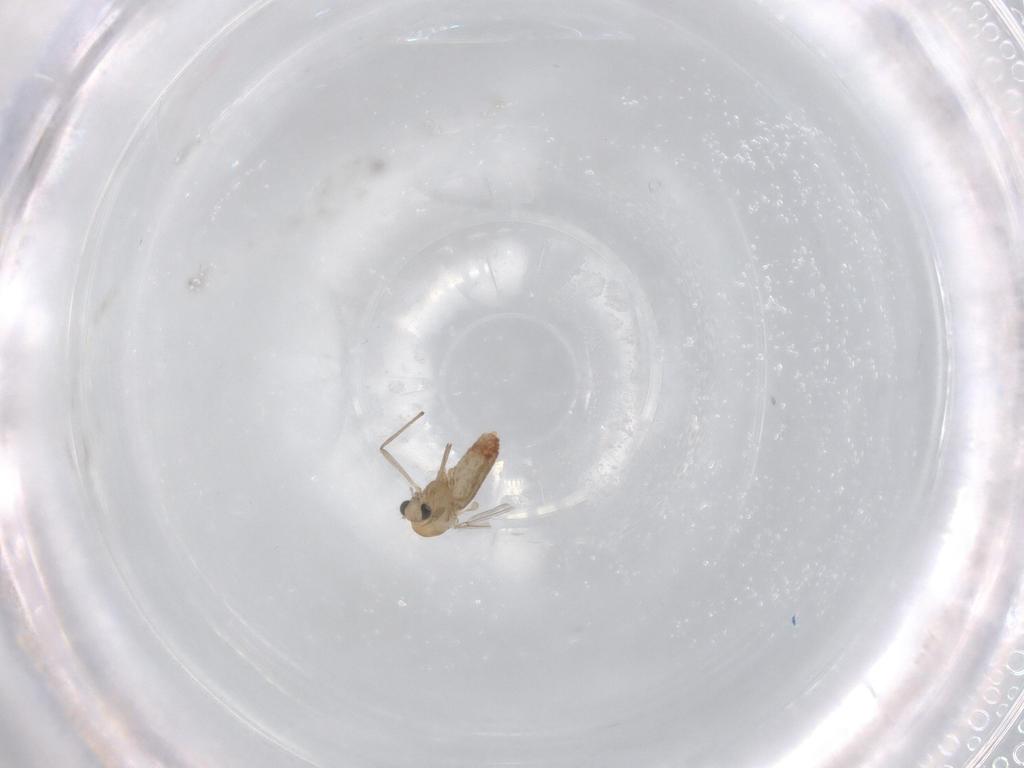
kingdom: Animalia
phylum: Arthropoda
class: Insecta
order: Diptera
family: Chironomidae
